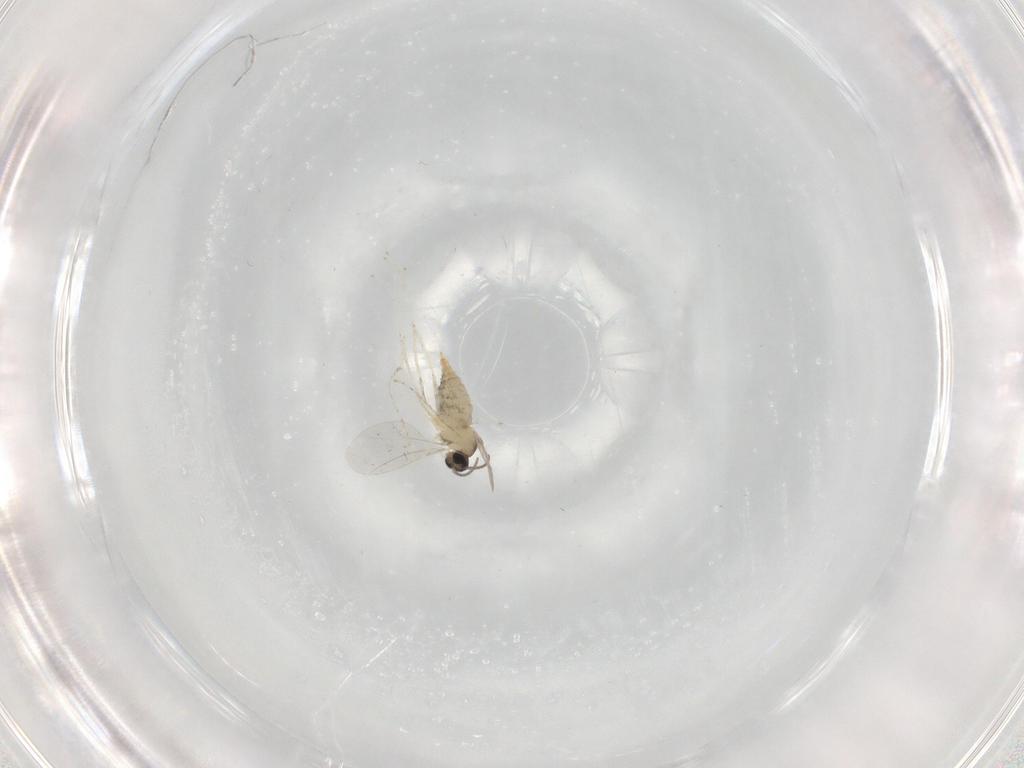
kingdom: Animalia
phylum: Arthropoda
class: Insecta
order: Diptera
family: Cecidomyiidae
